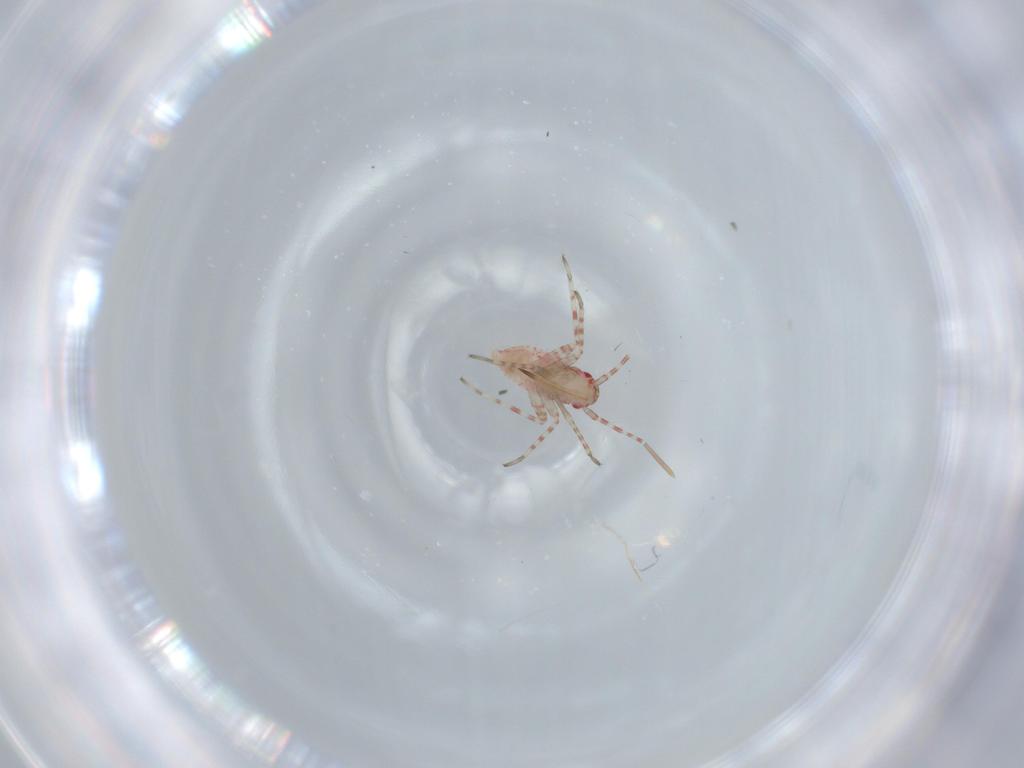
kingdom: Animalia
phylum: Arthropoda
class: Insecta
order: Hemiptera
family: Miridae
